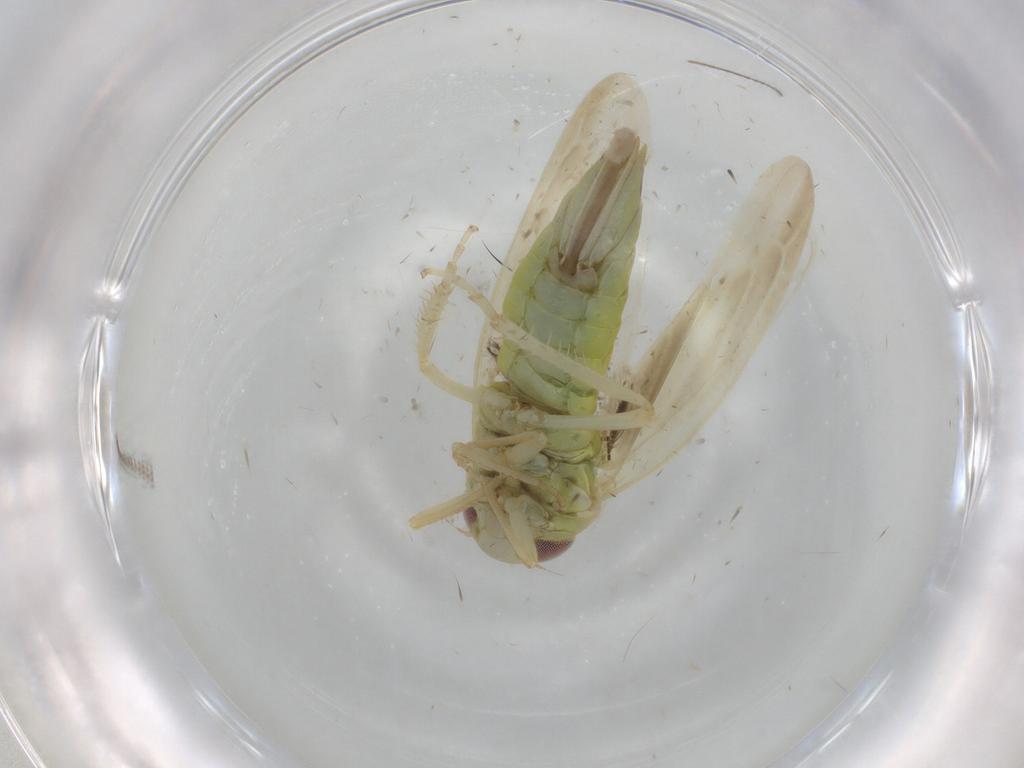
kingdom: Animalia
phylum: Arthropoda
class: Insecta
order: Hemiptera
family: Cicadellidae
